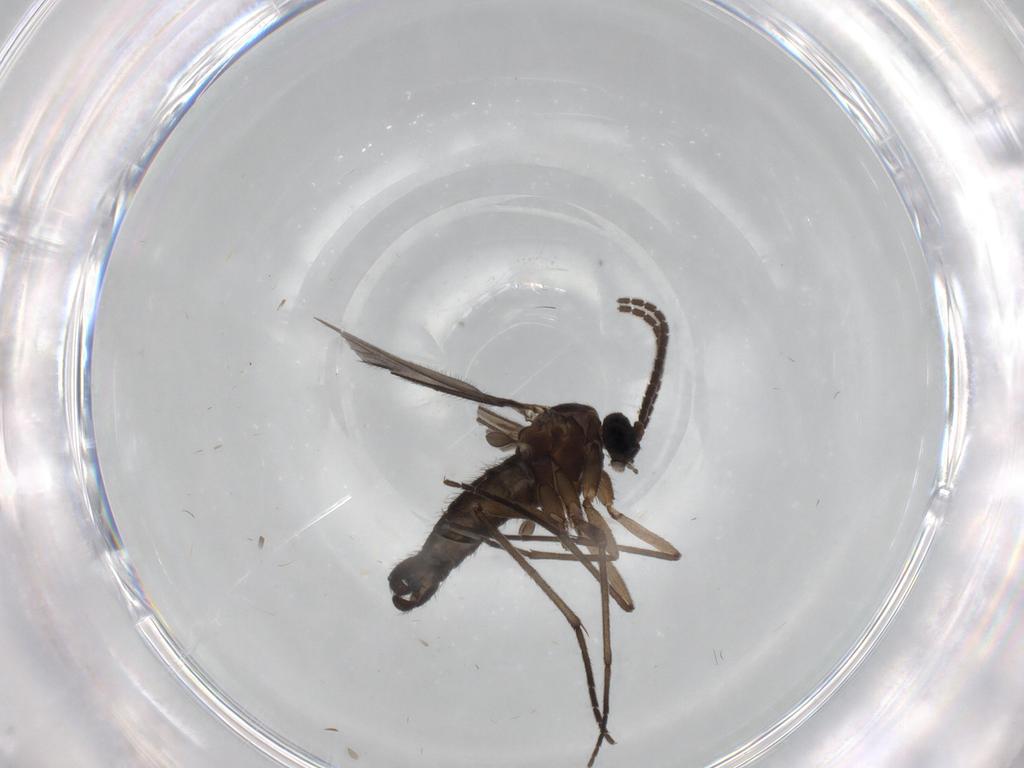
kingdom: Animalia
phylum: Arthropoda
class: Insecta
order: Diptera
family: Sciaridae
